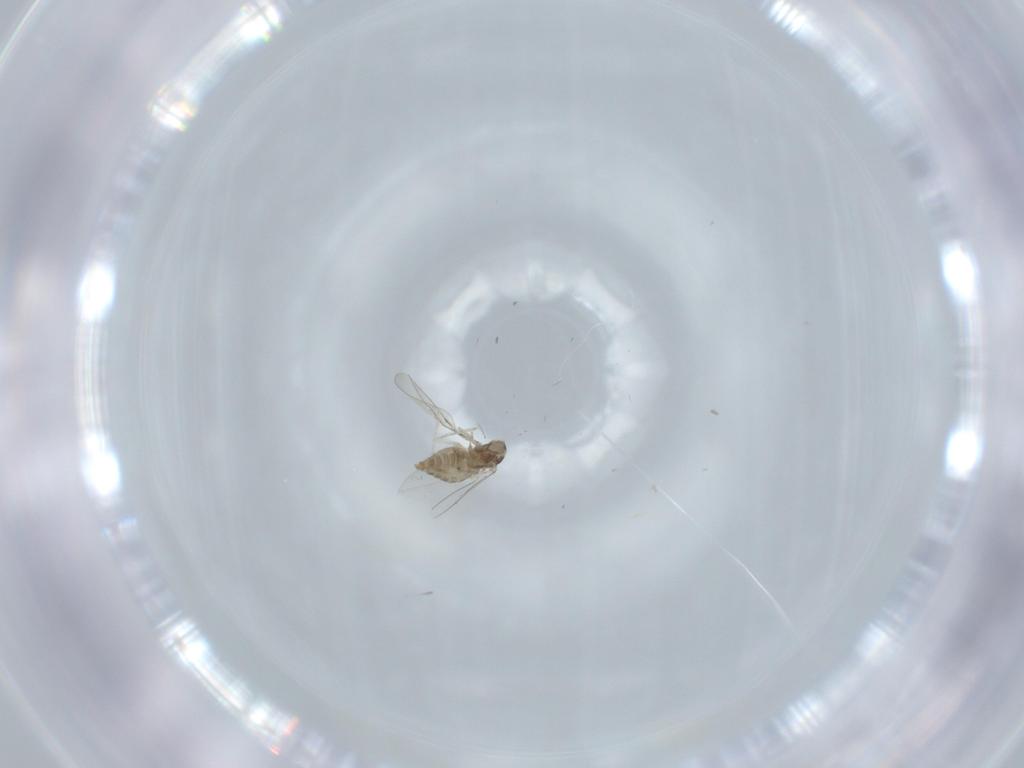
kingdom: Animalia
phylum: Arthropoda
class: Insecta
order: Diptera
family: Cecidomyiidae
